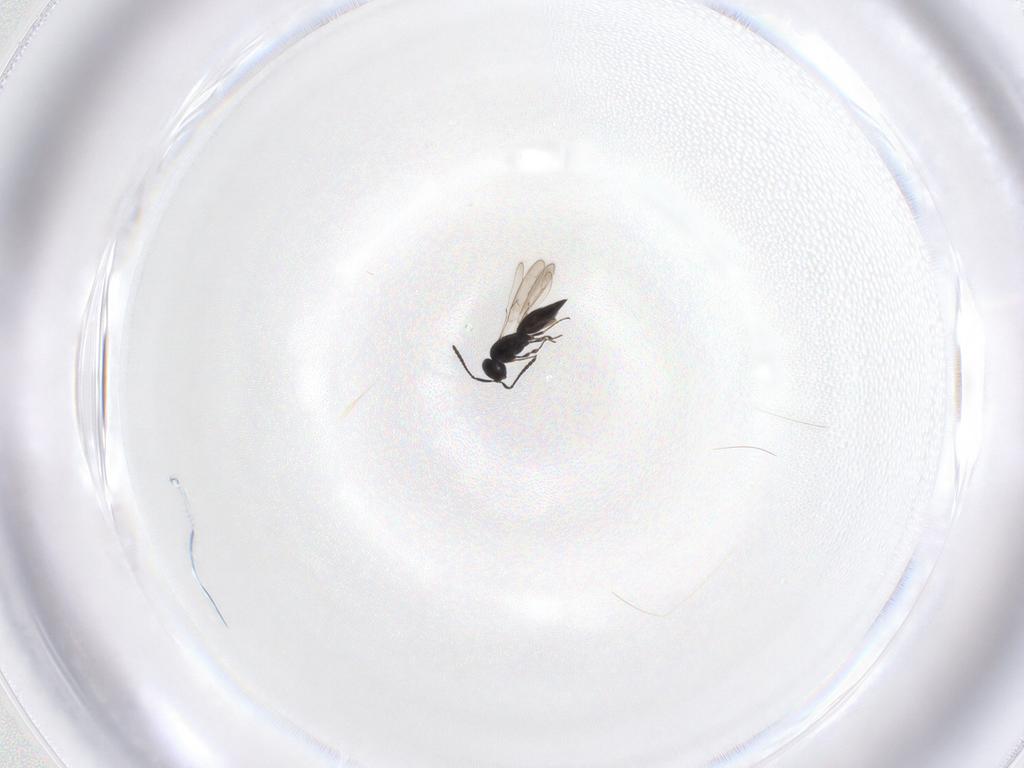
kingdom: Animalia
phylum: Arthropoda
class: Insecta
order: Hymenoptera
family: Scelionidae
